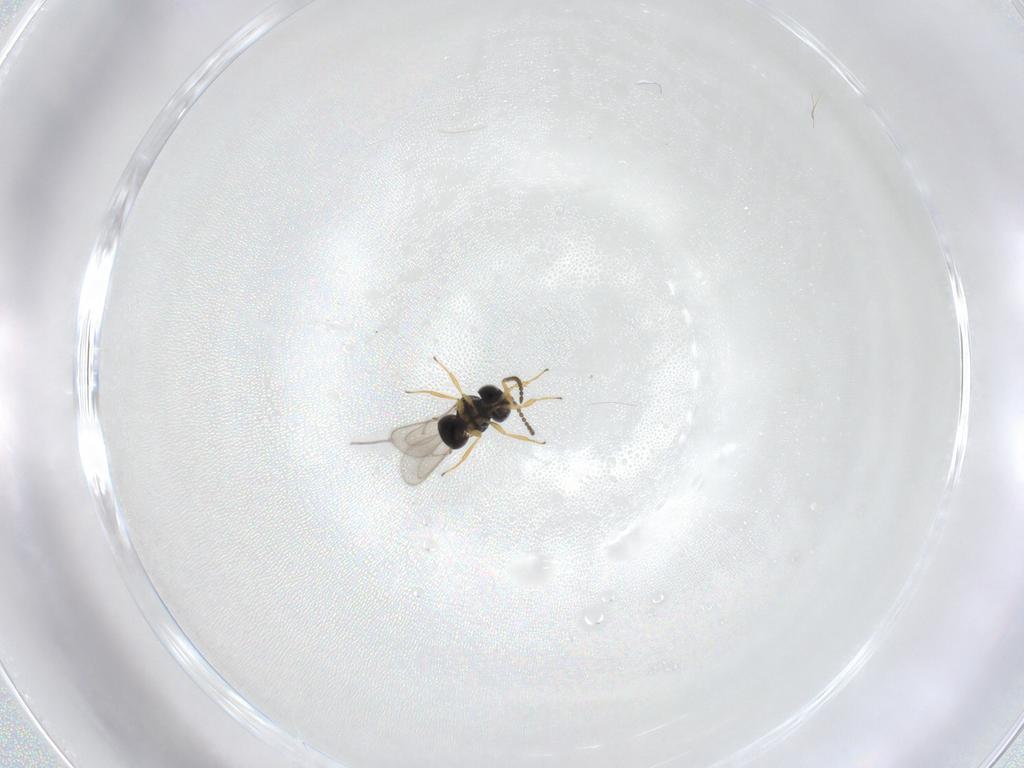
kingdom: Animalia
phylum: Arthropoda
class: Insecta
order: Hymenoptera
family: Scelionidae
